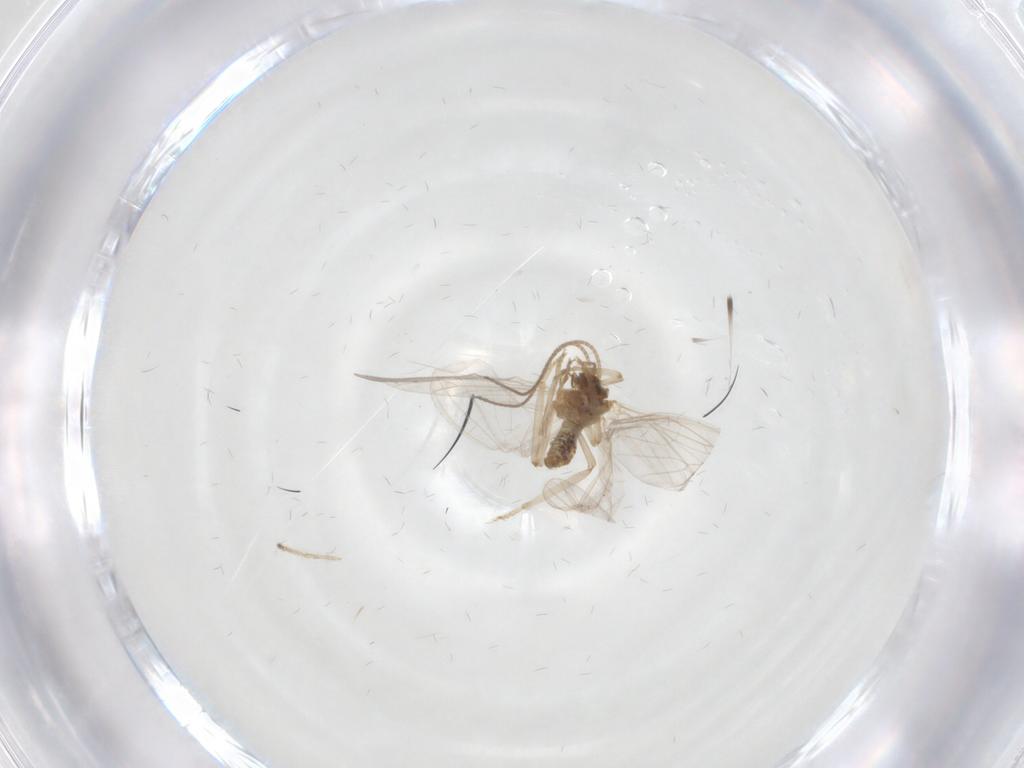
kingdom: Animalia
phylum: Arthropoda
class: Insecta
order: Neuroptera
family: Coniopterygidae
